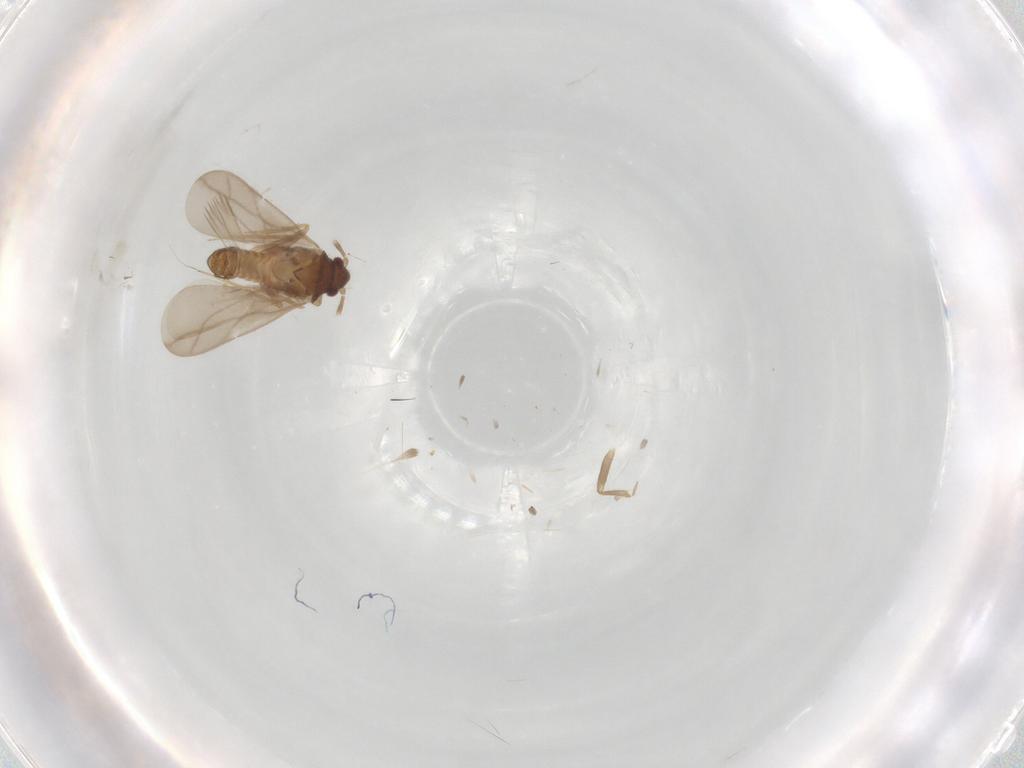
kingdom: Animalia
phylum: Arthropoda
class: Insecta
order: Hemiptera
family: Ceratocombidae
